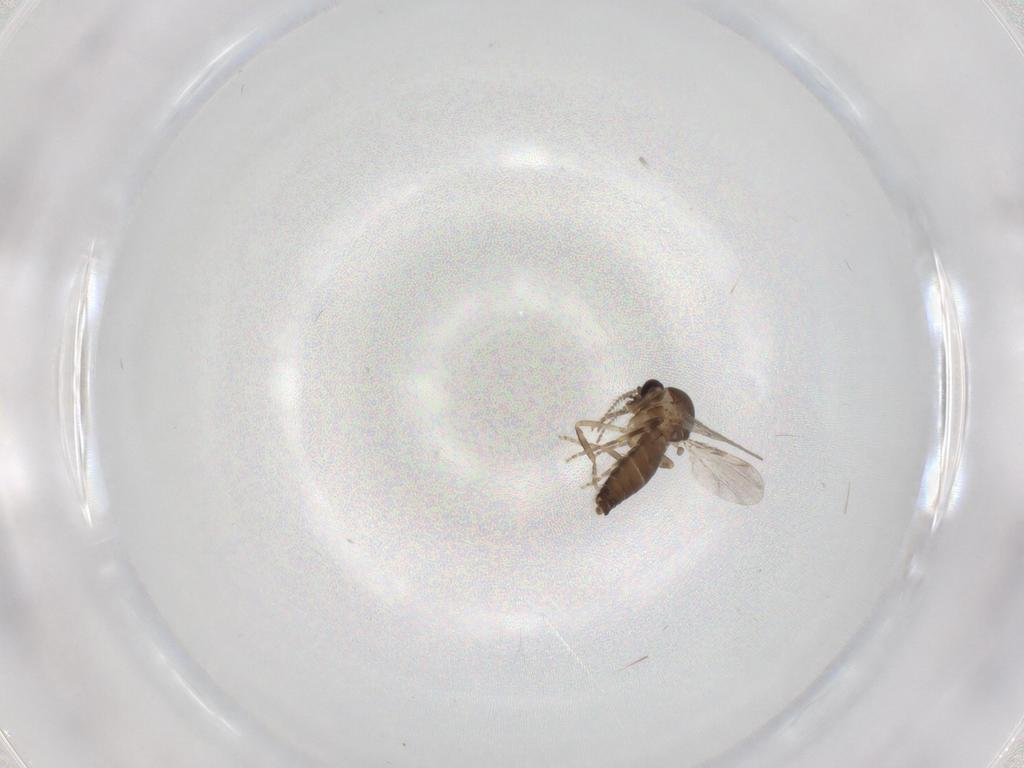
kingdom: Animalia
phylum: Arthropoda
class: Insecta
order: Diptera
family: Ceratopogonidae
